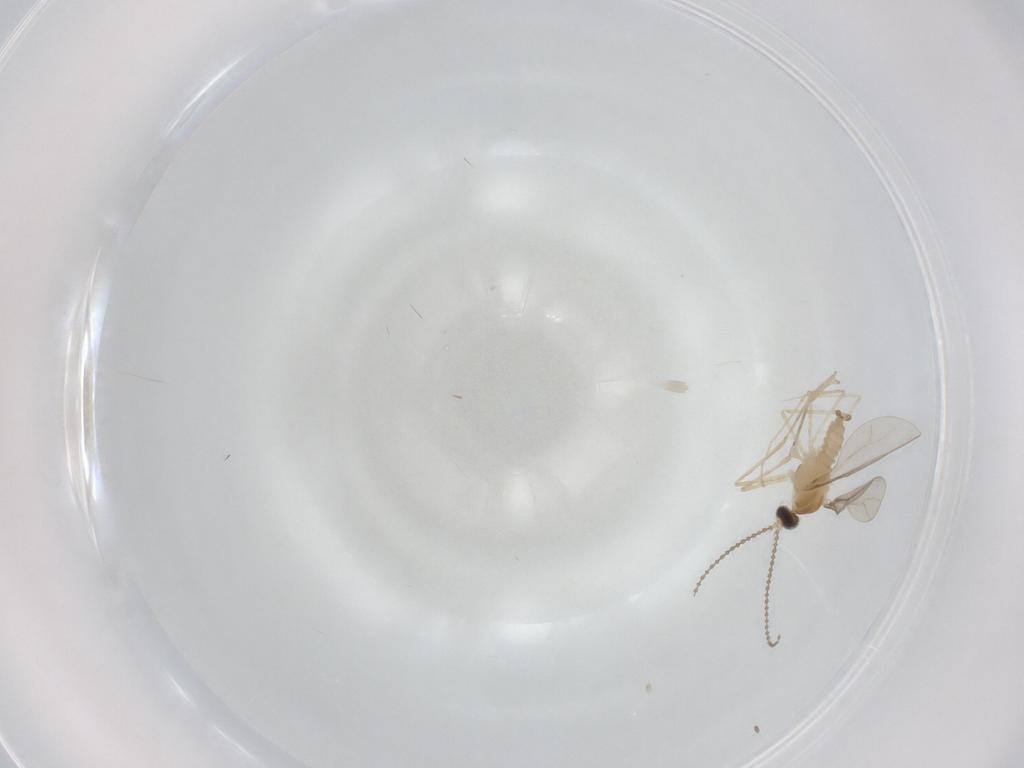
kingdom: Animalia
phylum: Arthropoda
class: Insecta
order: Diptera
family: Cecidomyiidae
